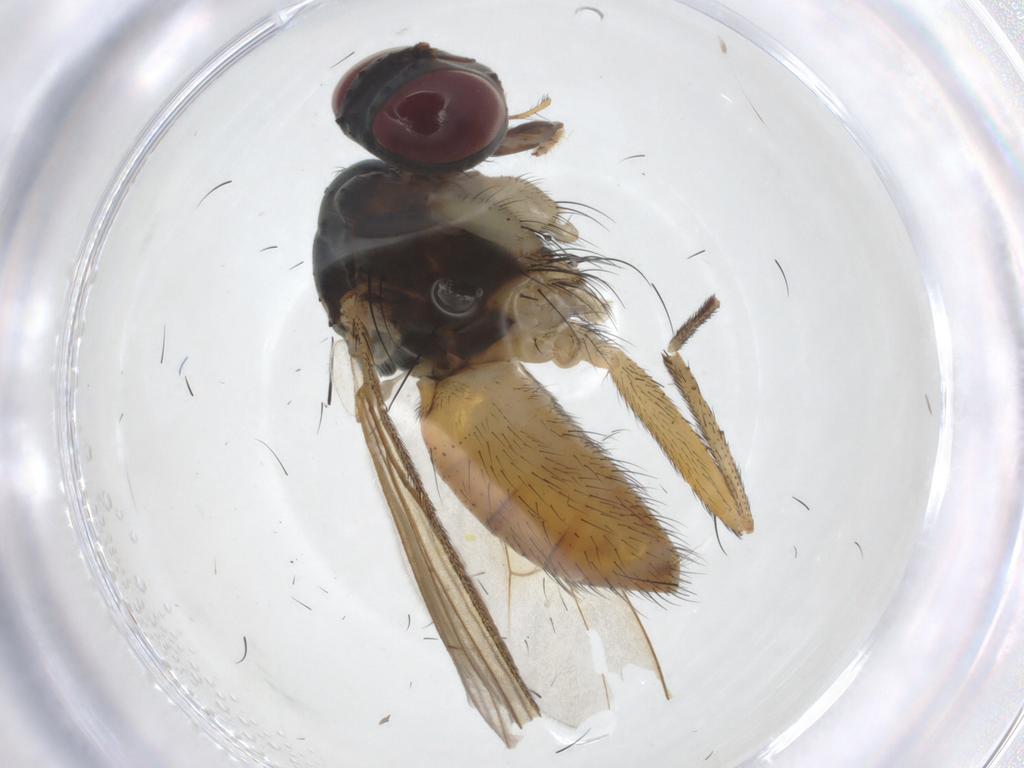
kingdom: Animalia
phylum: Arthropoda
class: Insecta
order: Diptera
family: Muscidae
